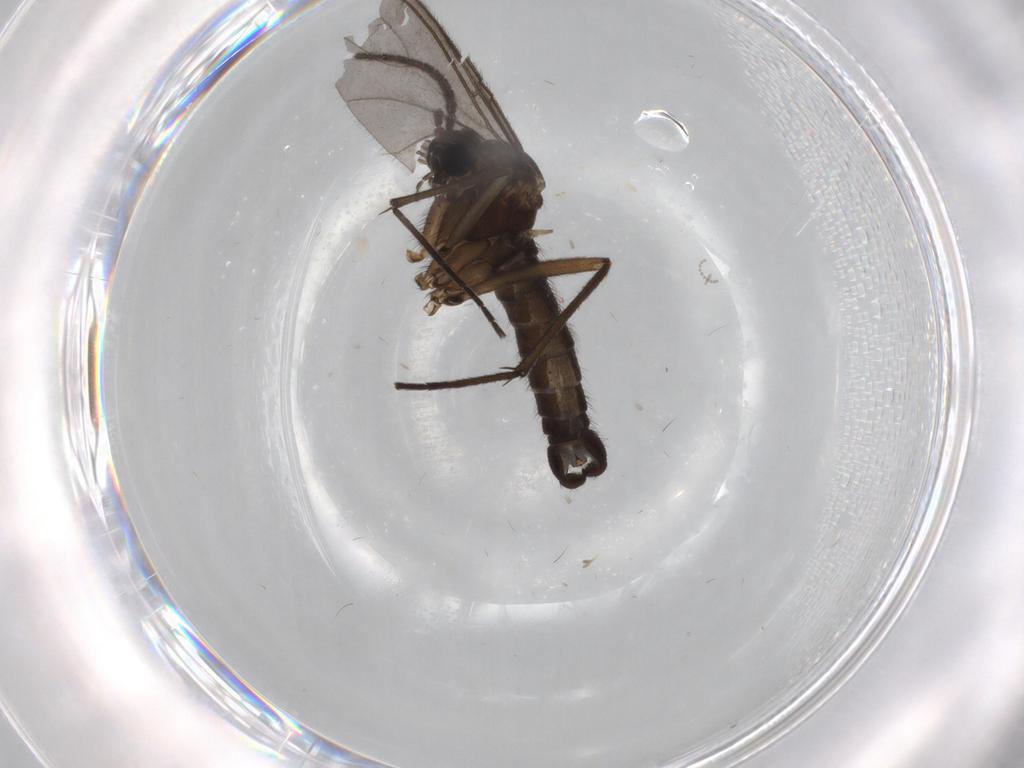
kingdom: Animalia
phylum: Arthropoda
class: Insecta
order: Diptera
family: Sciaridae
